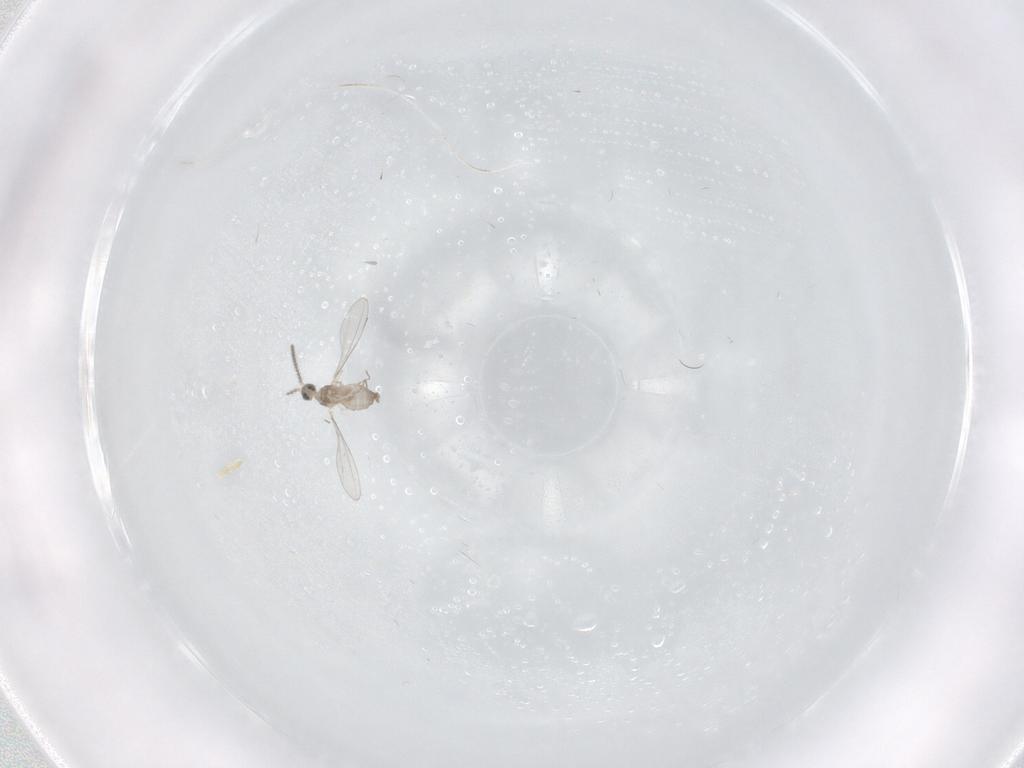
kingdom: Animalia
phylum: Arthropoda
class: Insecta
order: Diptera
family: Cecidomyiidae
